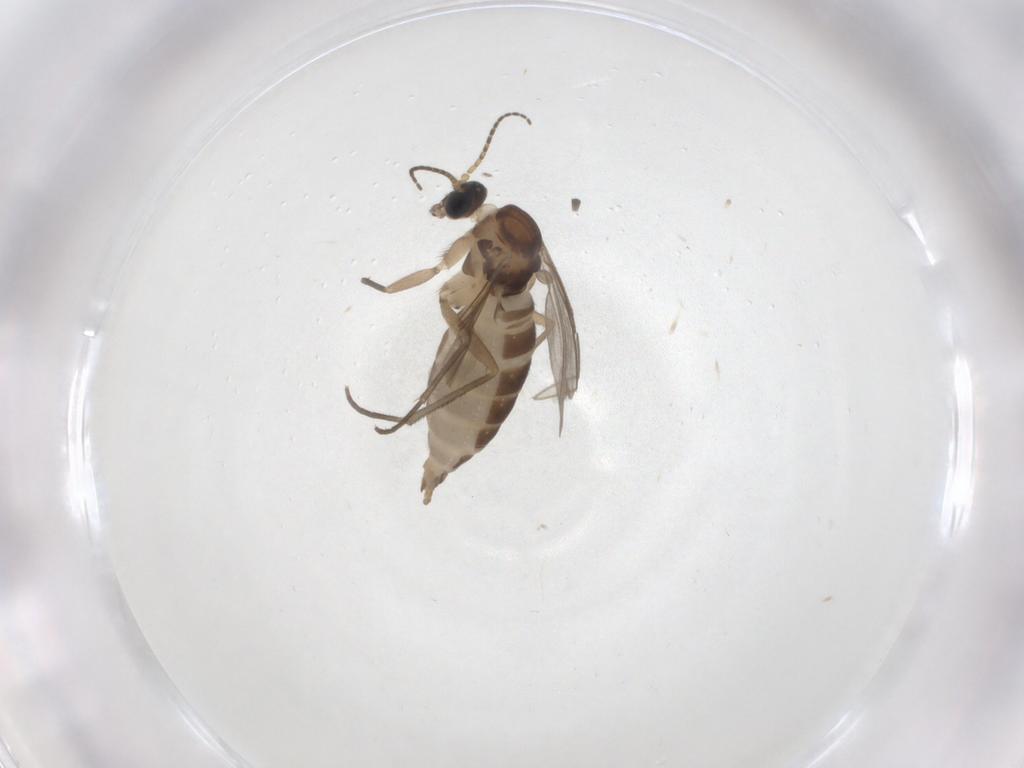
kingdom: Animalia
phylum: Arthropoda
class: Insecta
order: Diptera
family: Sciaridae
